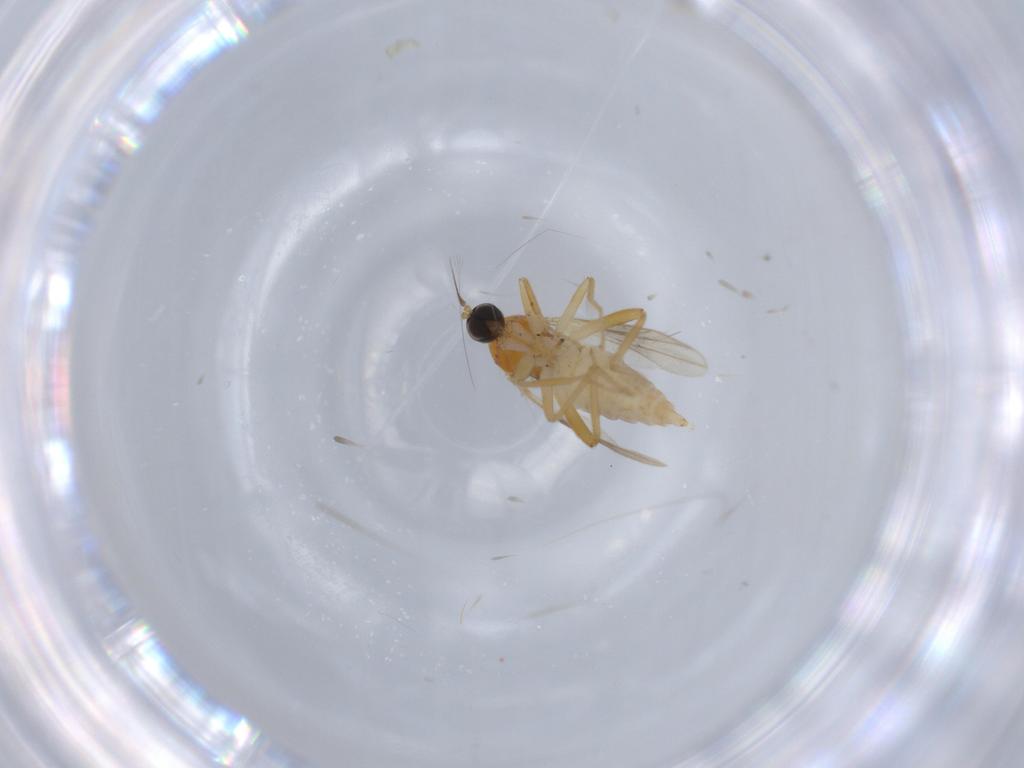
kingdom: Animalia
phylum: Arthropoda
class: Insecta
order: Diptera
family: Hybotidae
